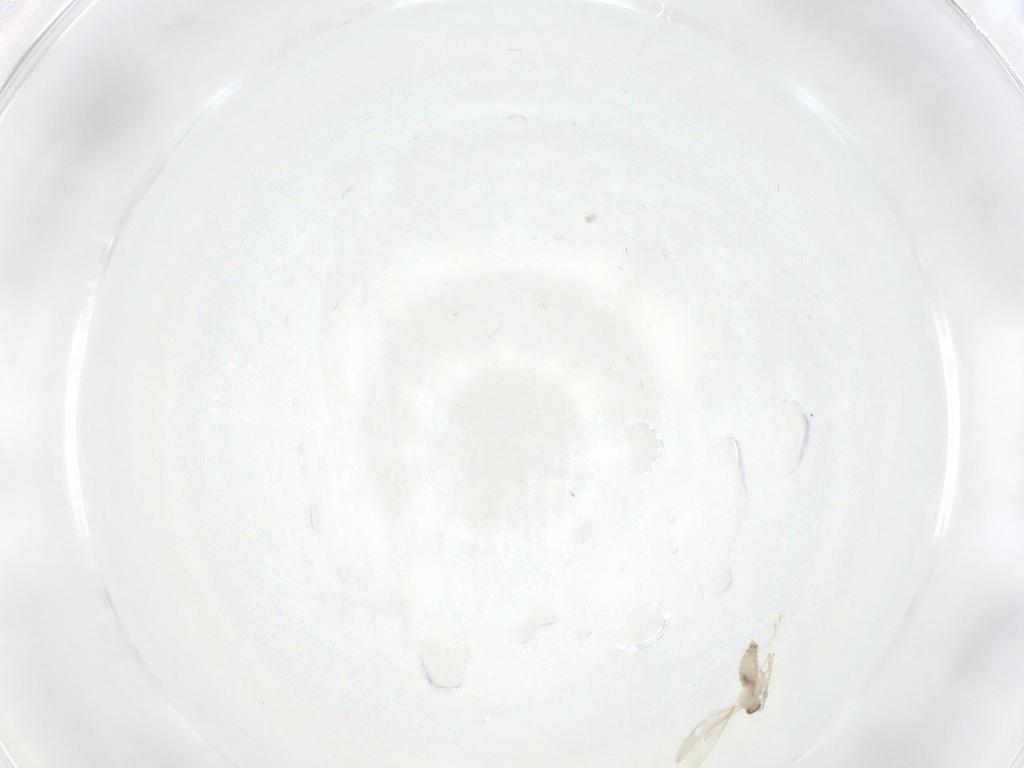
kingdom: Animalia
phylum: Arthropoda
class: Insecta
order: Diptera
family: Cecidomyiidae
